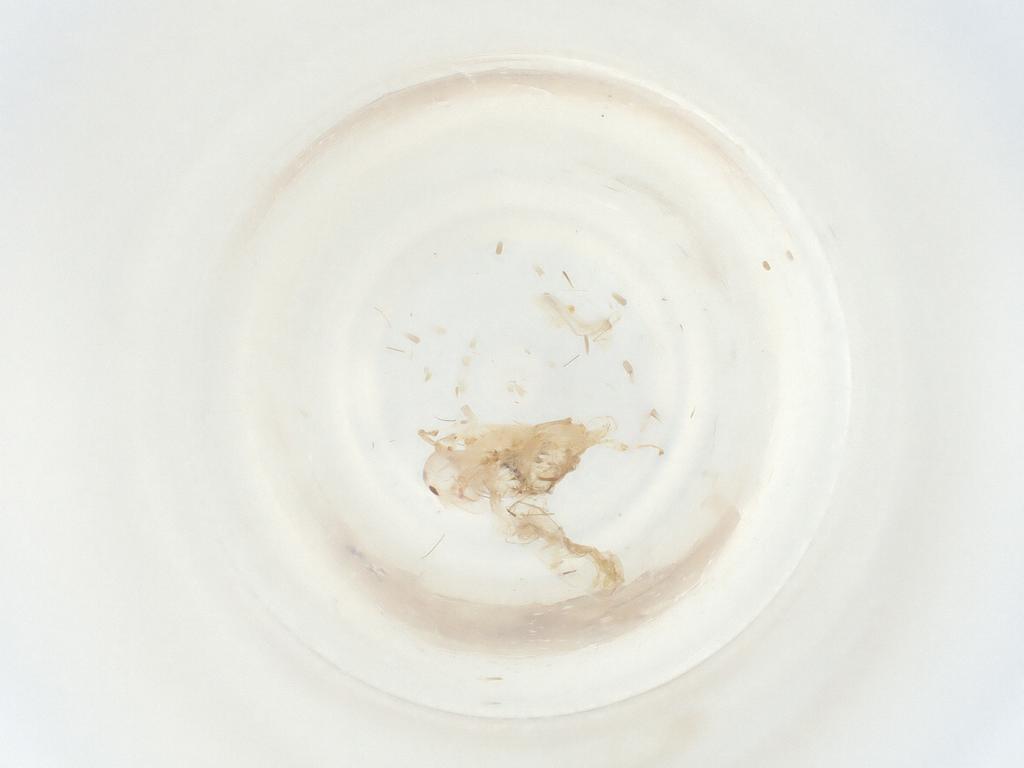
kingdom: Animalia
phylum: Arthropoda
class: Insecta
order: Hemiptera
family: Cicadellidae
